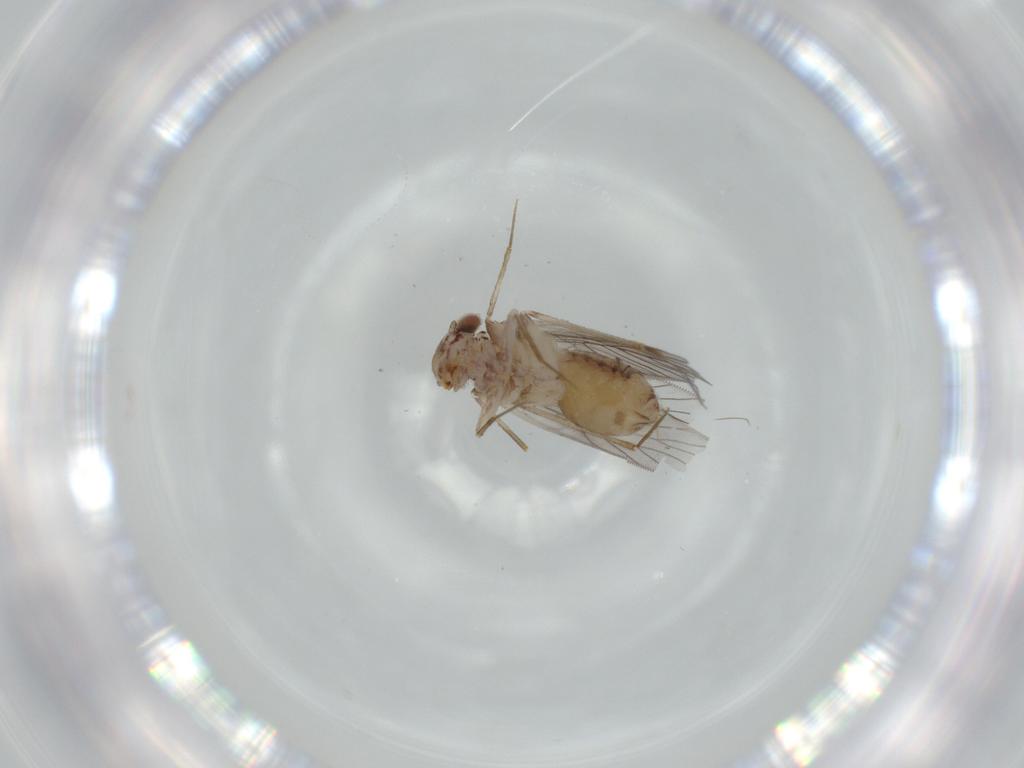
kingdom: Animalia
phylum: Arthropoda
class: Insecta
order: Psocodea
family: Lepidopsocidae
